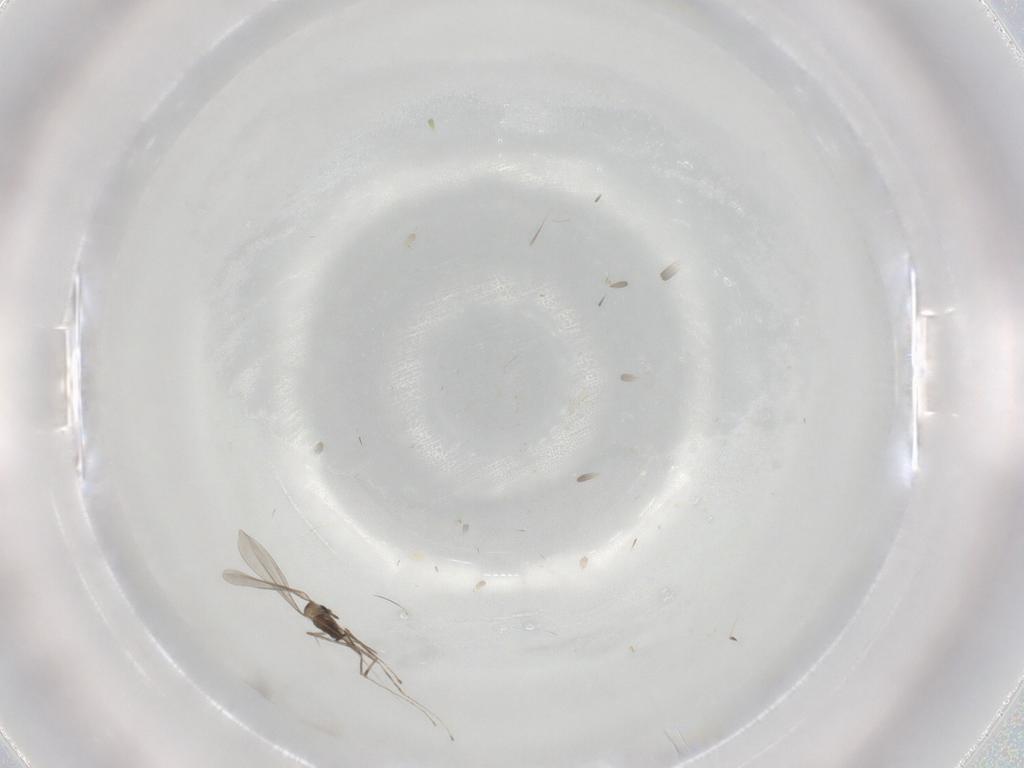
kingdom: Animalia
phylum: Arthropoda
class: Insecta
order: Diptera
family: Cecidomyiidae
